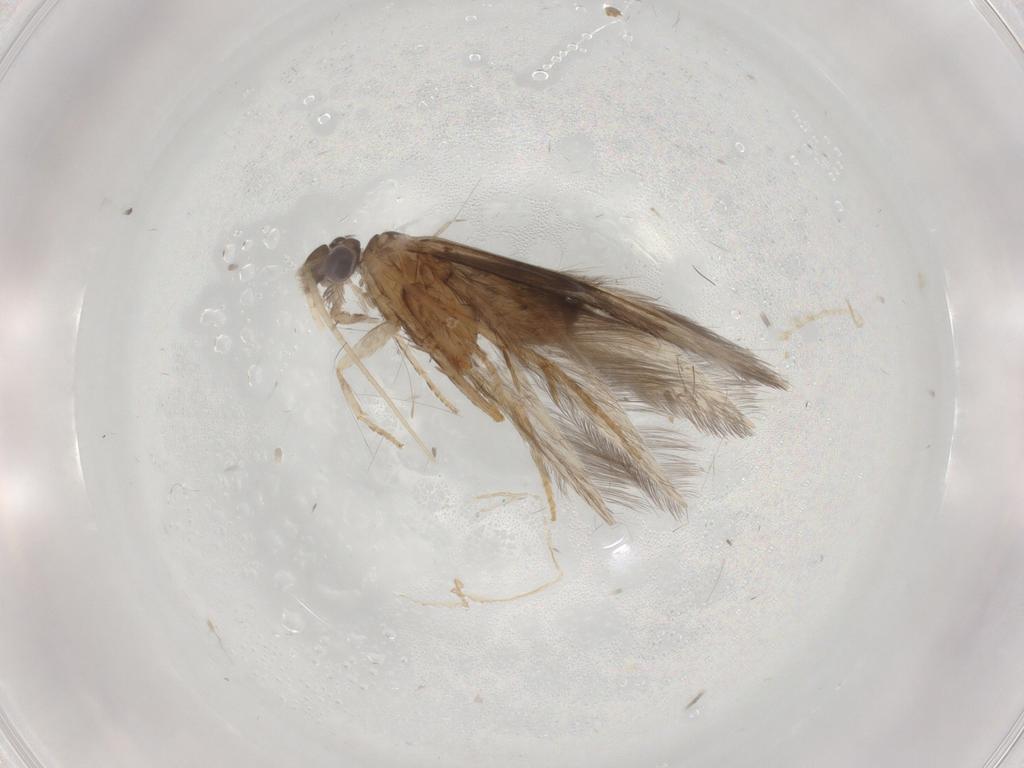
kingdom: Animalia
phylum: Arthropoda
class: Insecta
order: Trichoptera
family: Hydroptilidae
